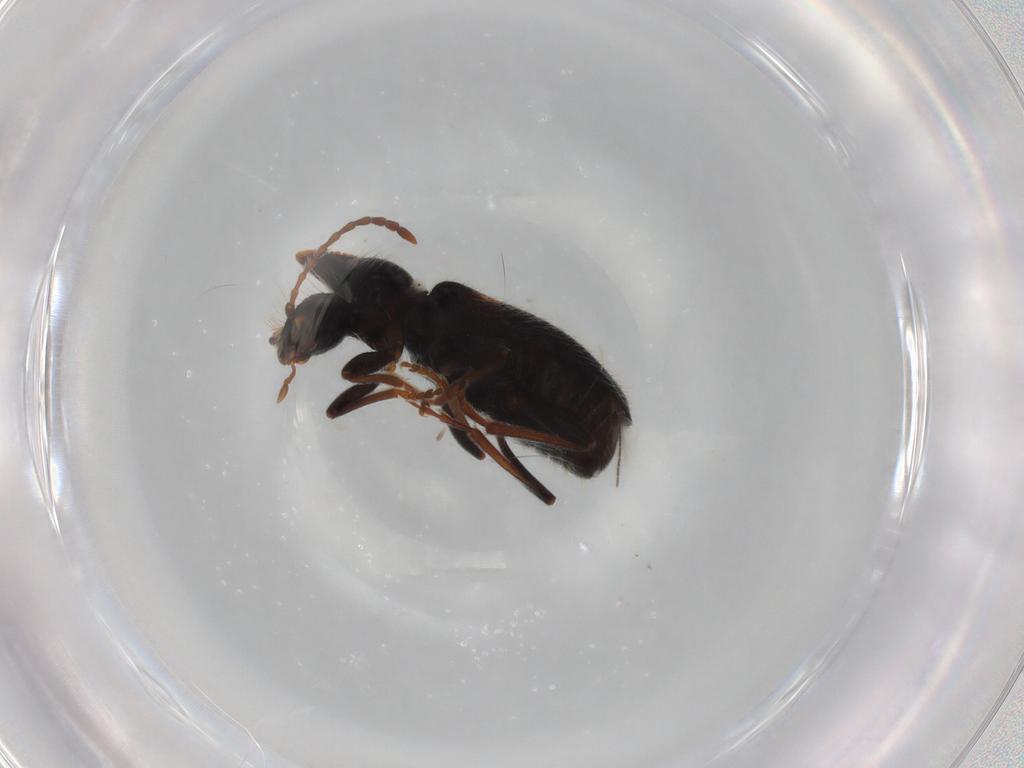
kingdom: Animalia
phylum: Arthropoda
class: Insecta
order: Coleoptera
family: Anthicidae
